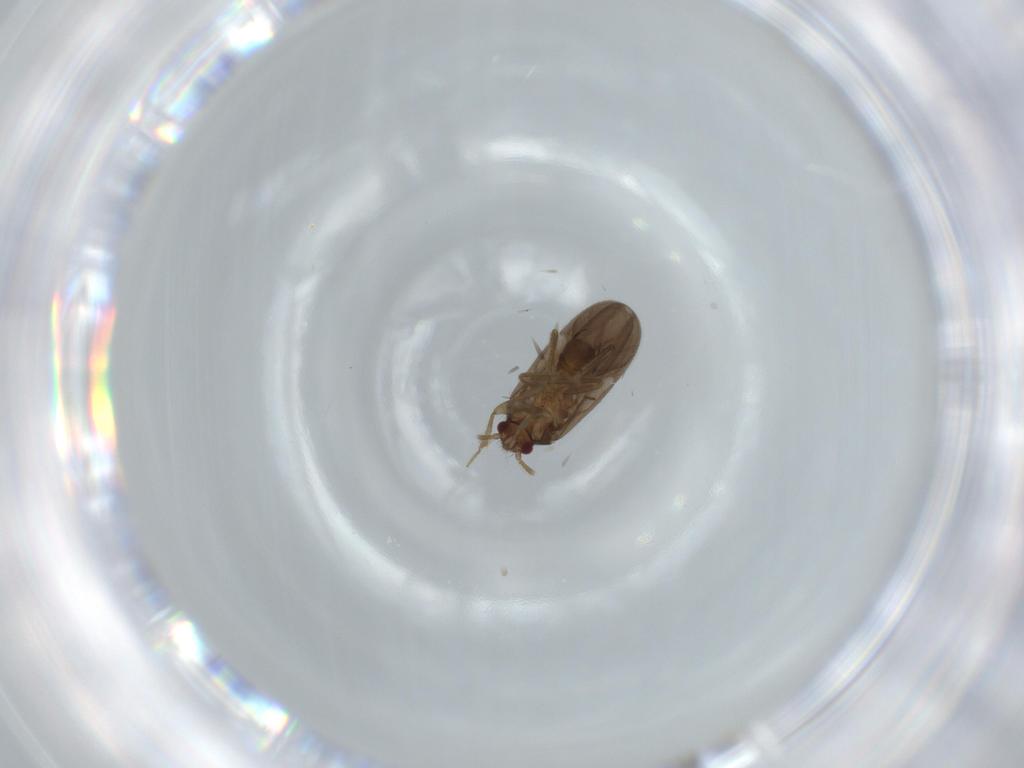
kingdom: Animalia
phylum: Arthropoda
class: Insecta
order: Hemiptera
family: Ceratocombidae
